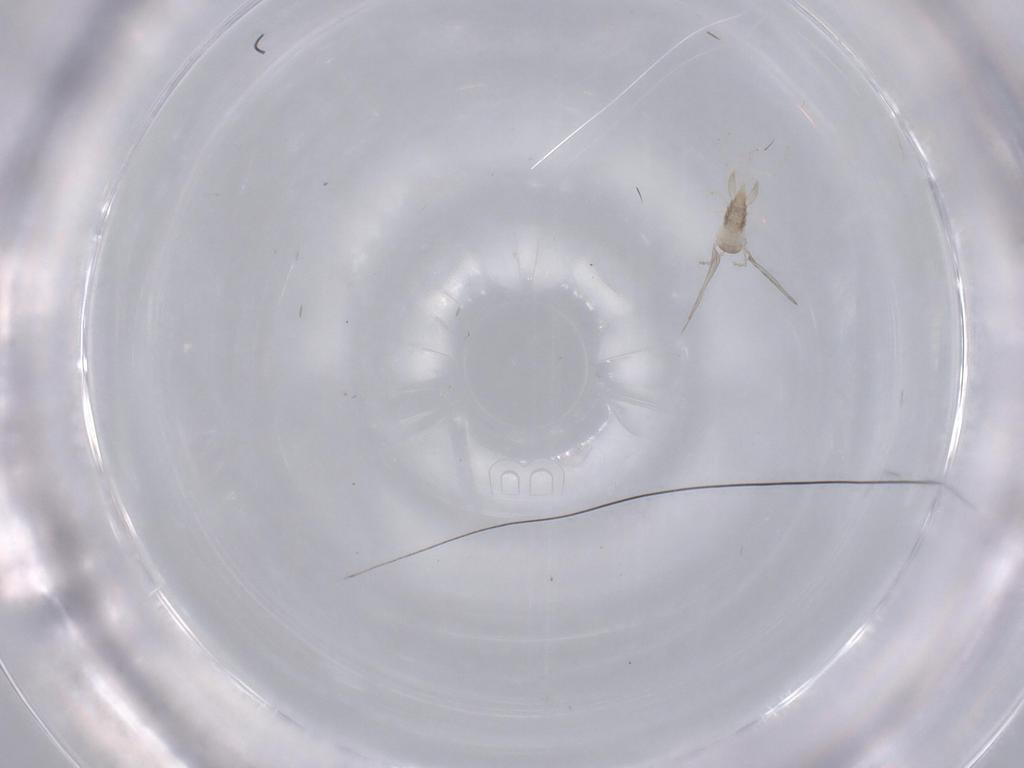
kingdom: Animalia
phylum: Arthropoda
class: Insecta
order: Diptera
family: Cecidomyiidae
